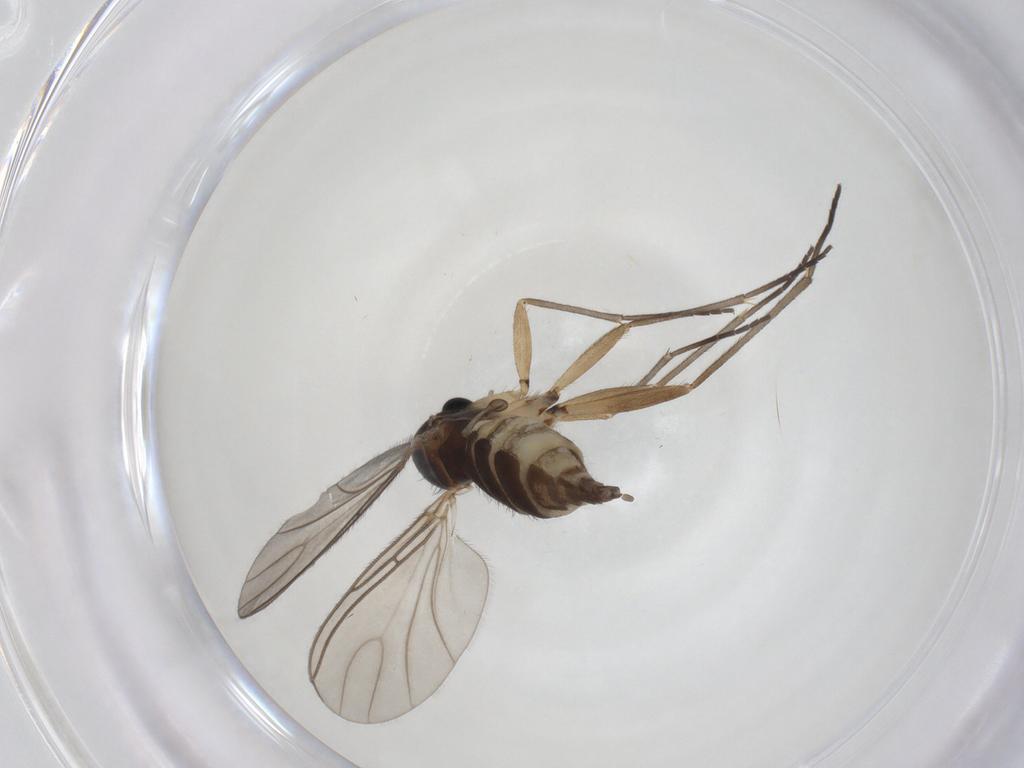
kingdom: Animalia
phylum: Arthropoda
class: Insecta
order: Diptera
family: Sciaridae
